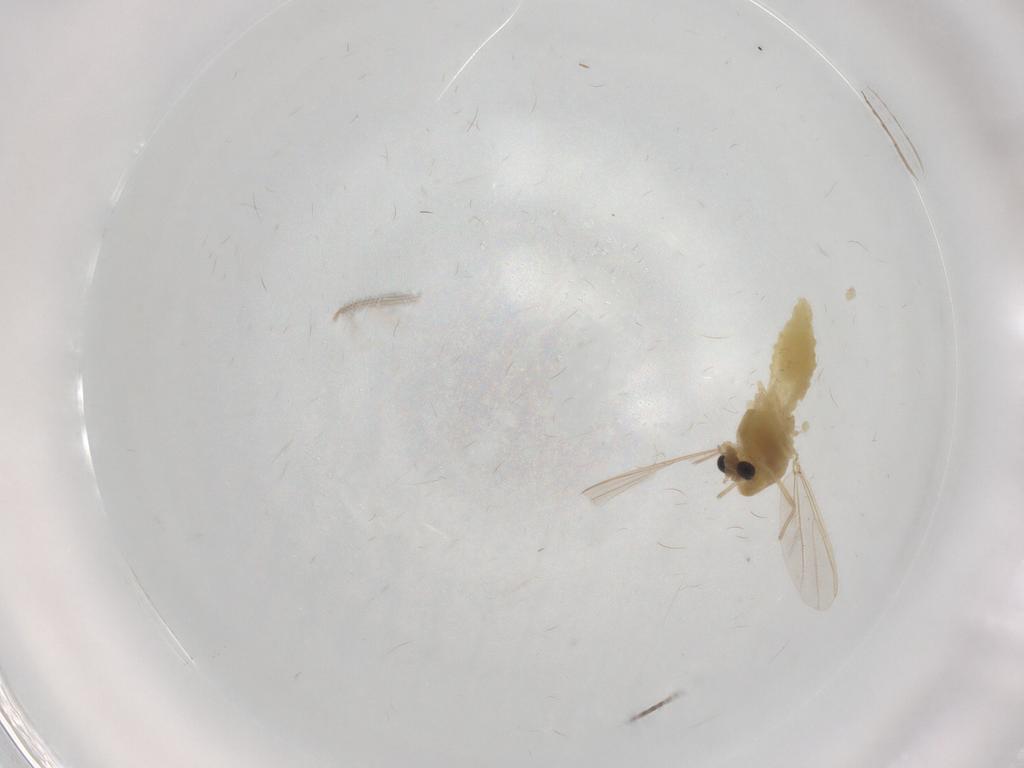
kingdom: Animalia
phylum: Arthropoda
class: Insecta
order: Diptera
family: Chironomidae
